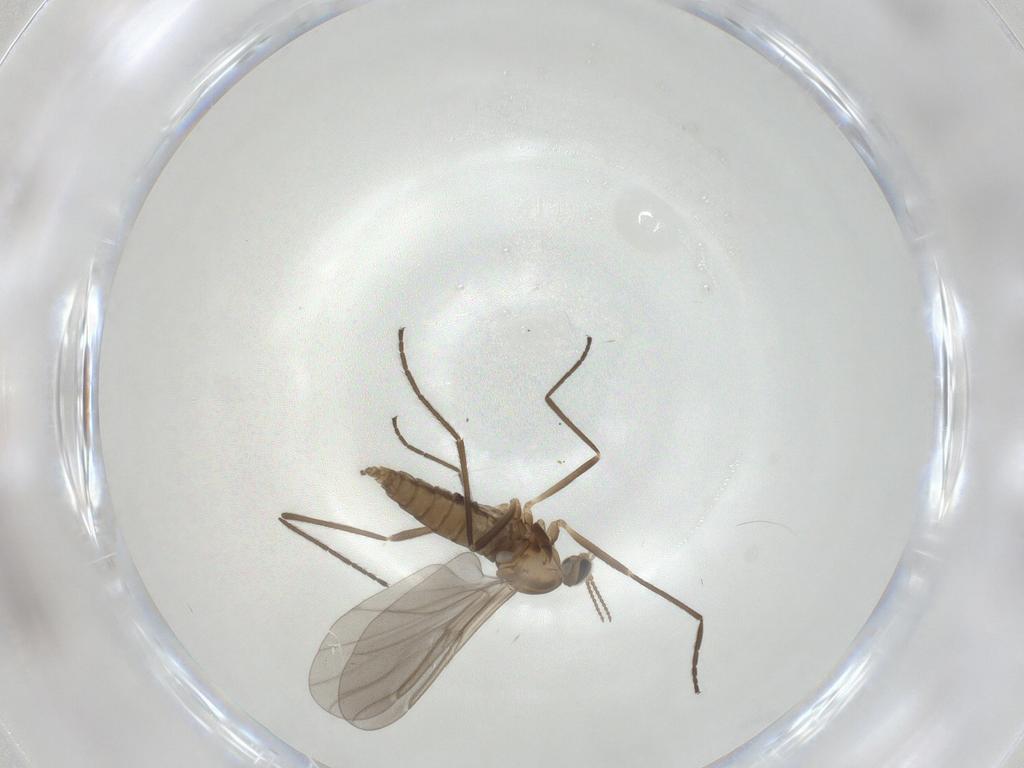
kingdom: Animalia
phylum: Arthropoda
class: Insecta
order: Diptera
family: Cecidomyiidae
